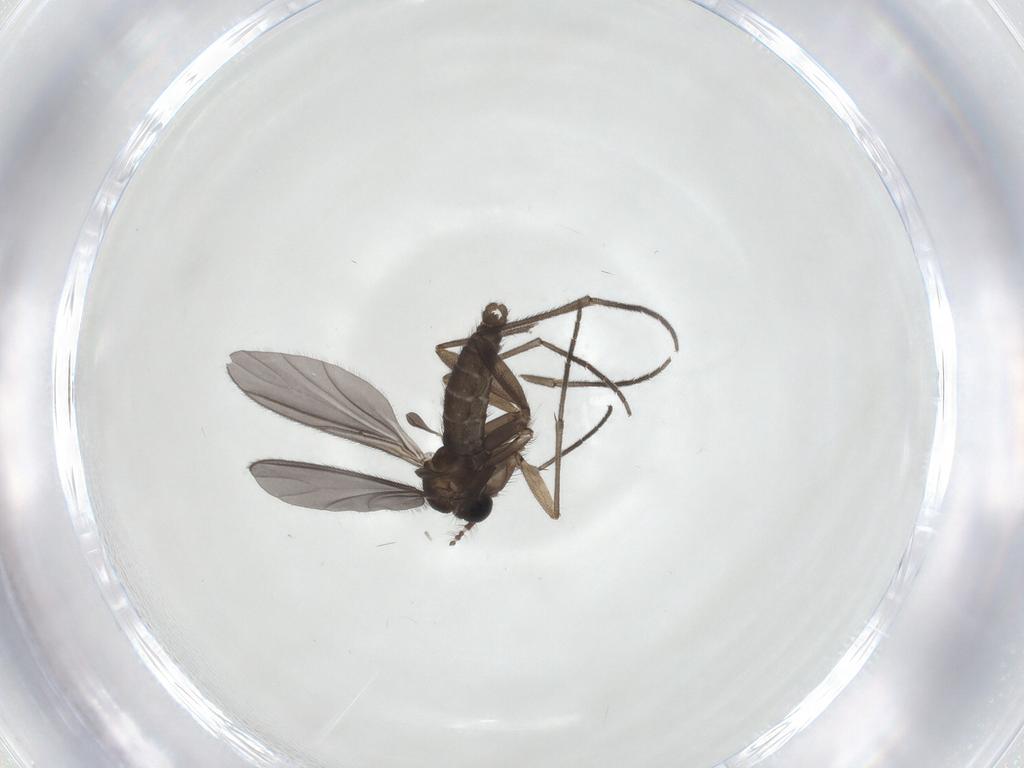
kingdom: Animalia
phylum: Arthropoda
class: Insecta
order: Diptera
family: Sciaridae
